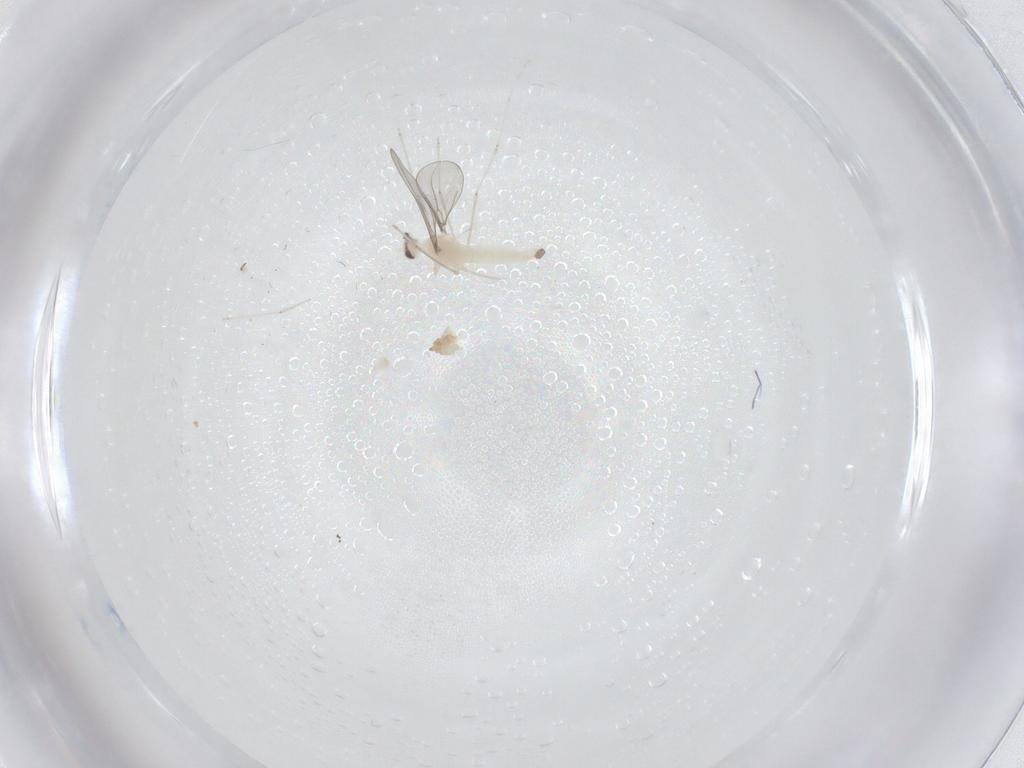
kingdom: Animalia
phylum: Arthropoda
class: Insecta
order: Diptera
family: Cecidomyiidae
